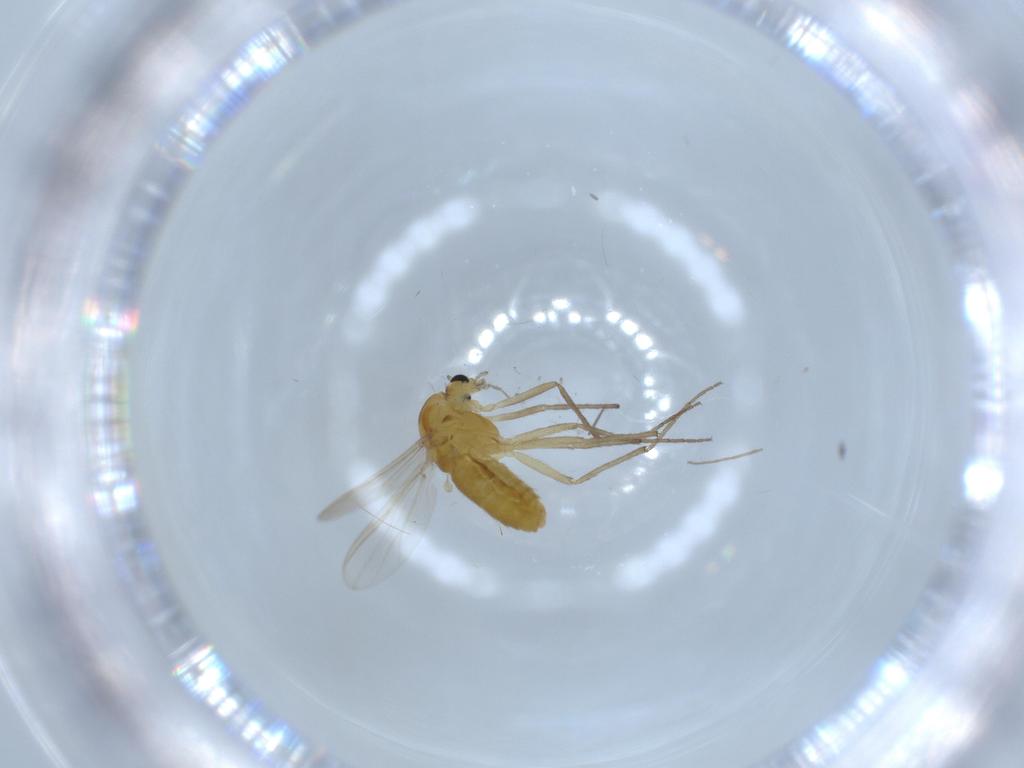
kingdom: Animalia
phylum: Arthropoda
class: Insecta
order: Diptera
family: Chironomidae
